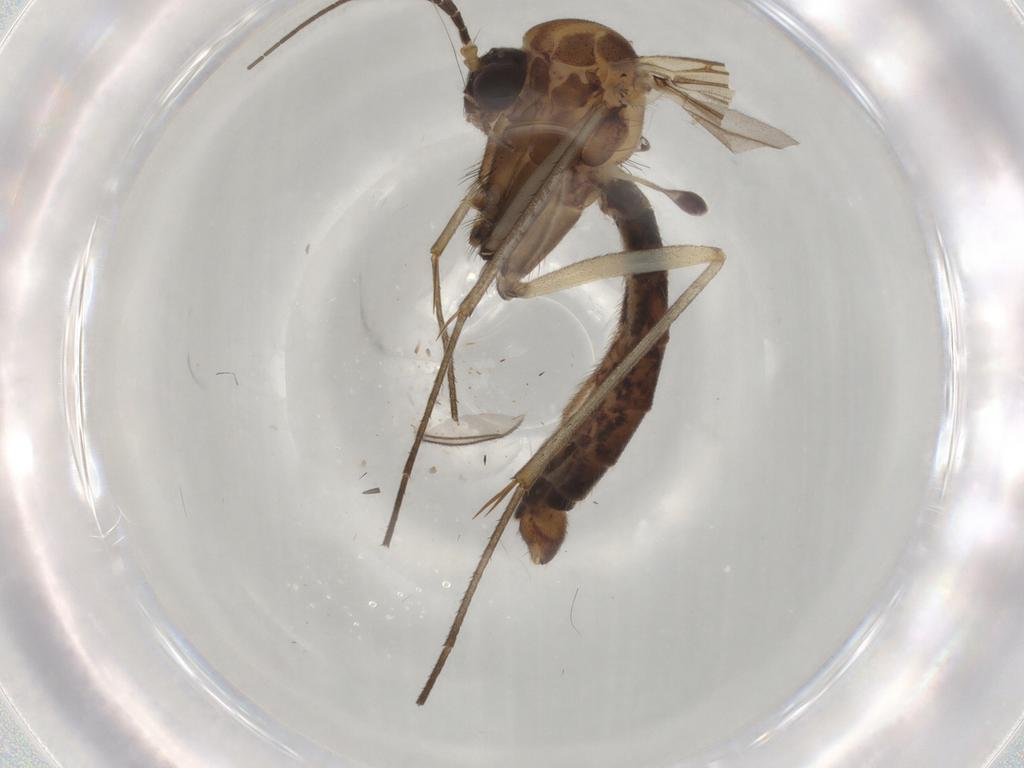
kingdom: Animalia
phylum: Arthropoda
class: Insecta
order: Diptera
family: Mycetophilidae
